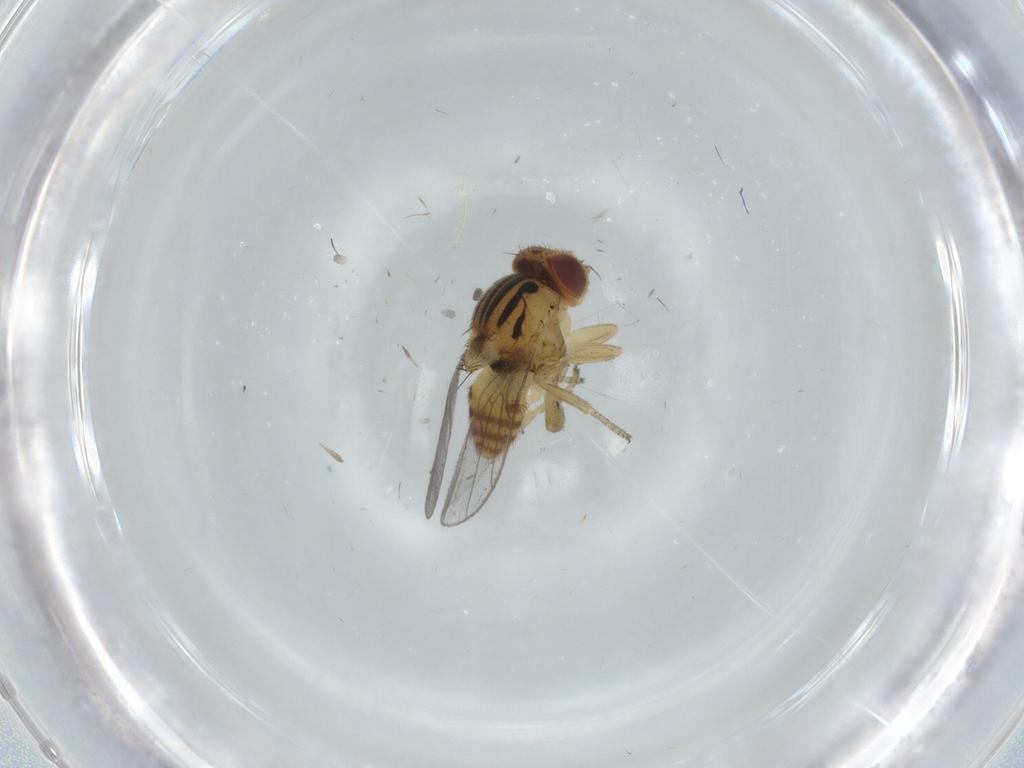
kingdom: Animalia
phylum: Arthropoda
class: Insecta
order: Diptera
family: Chloropidae
